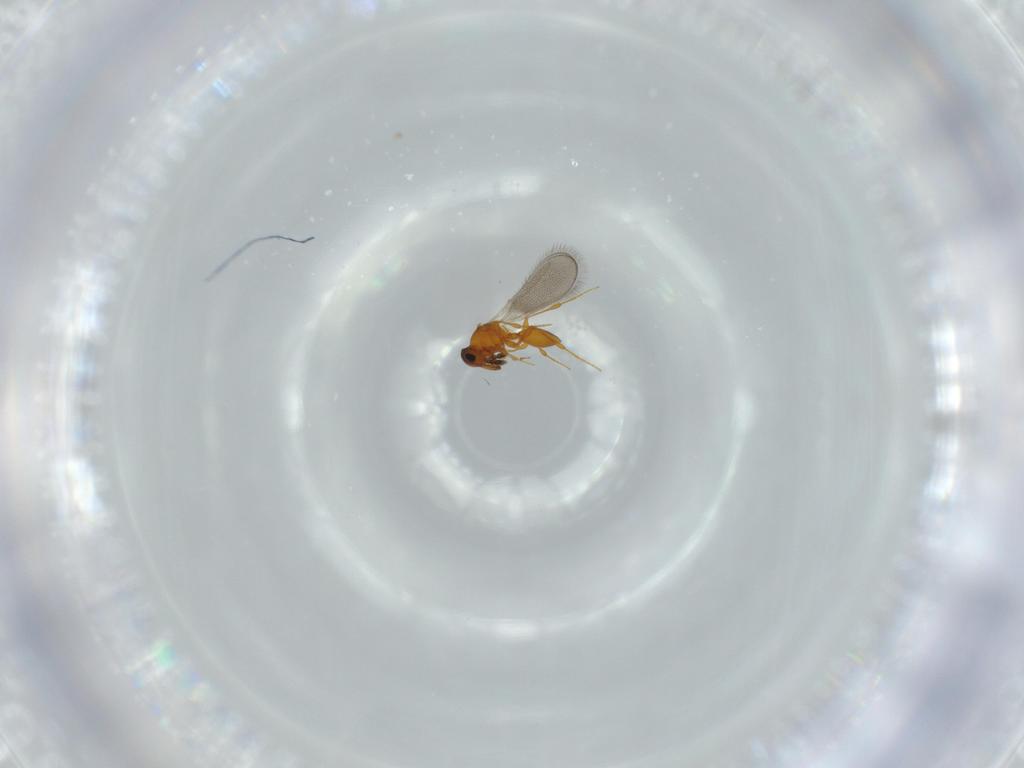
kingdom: Animalia
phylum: Arthropoda
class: Insecta
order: Hymenoptera
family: Platygastridae
